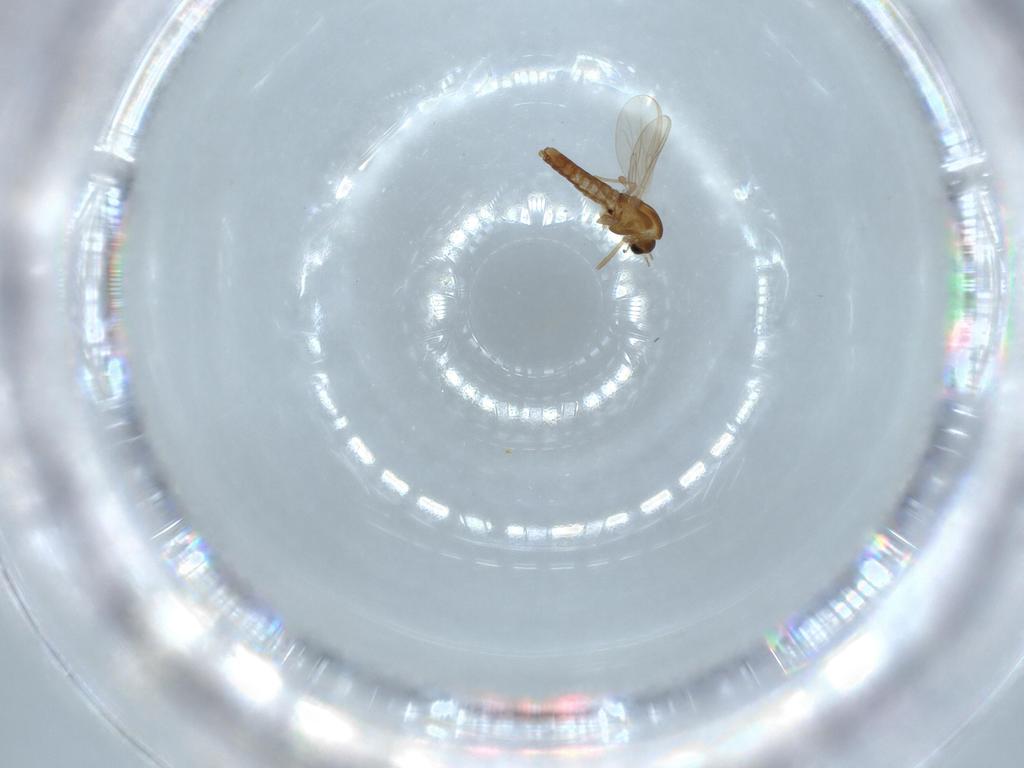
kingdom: Animalia
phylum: Arthropoda
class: Insecta
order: Diptera
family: Chironomidae
